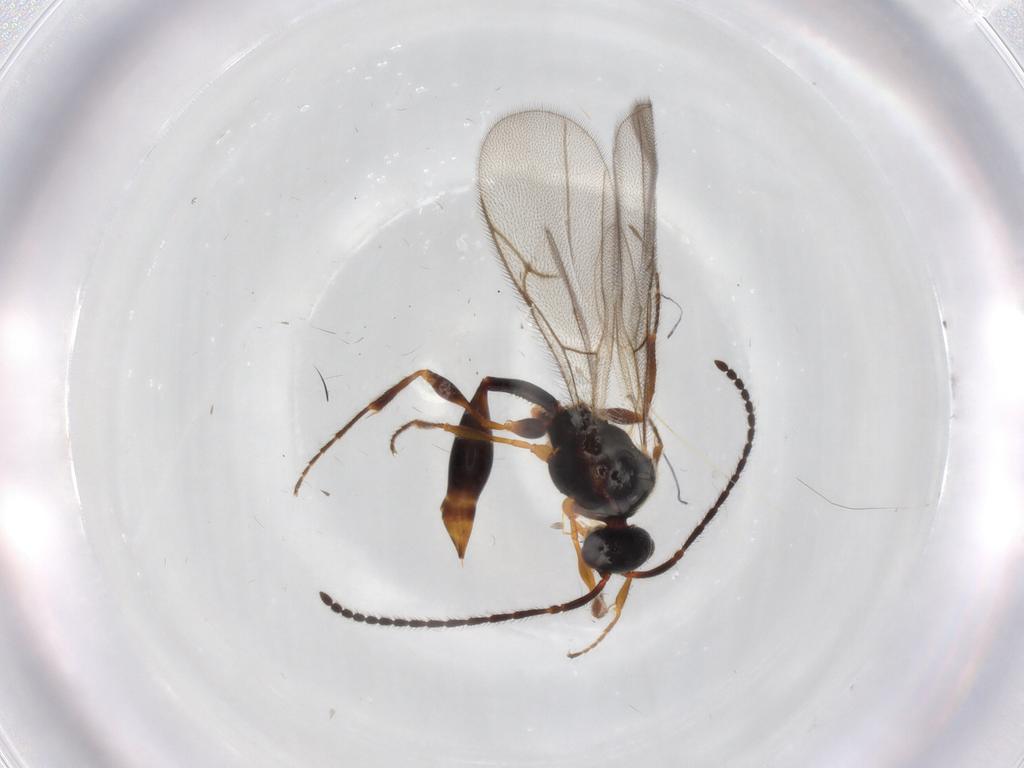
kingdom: Animalia
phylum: Arthropoda
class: Insecta
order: Hymenoptera
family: Diapriidae
